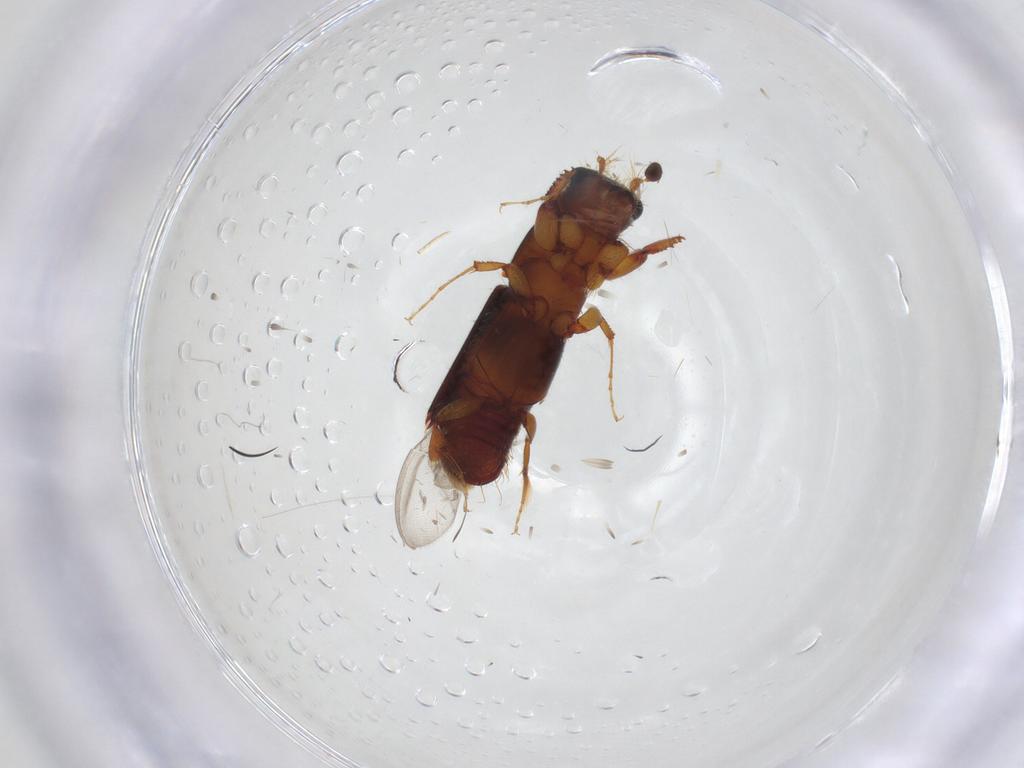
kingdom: Animalia
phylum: Arthropoda
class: Insecta
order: Coleoptera
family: Curculionidae
